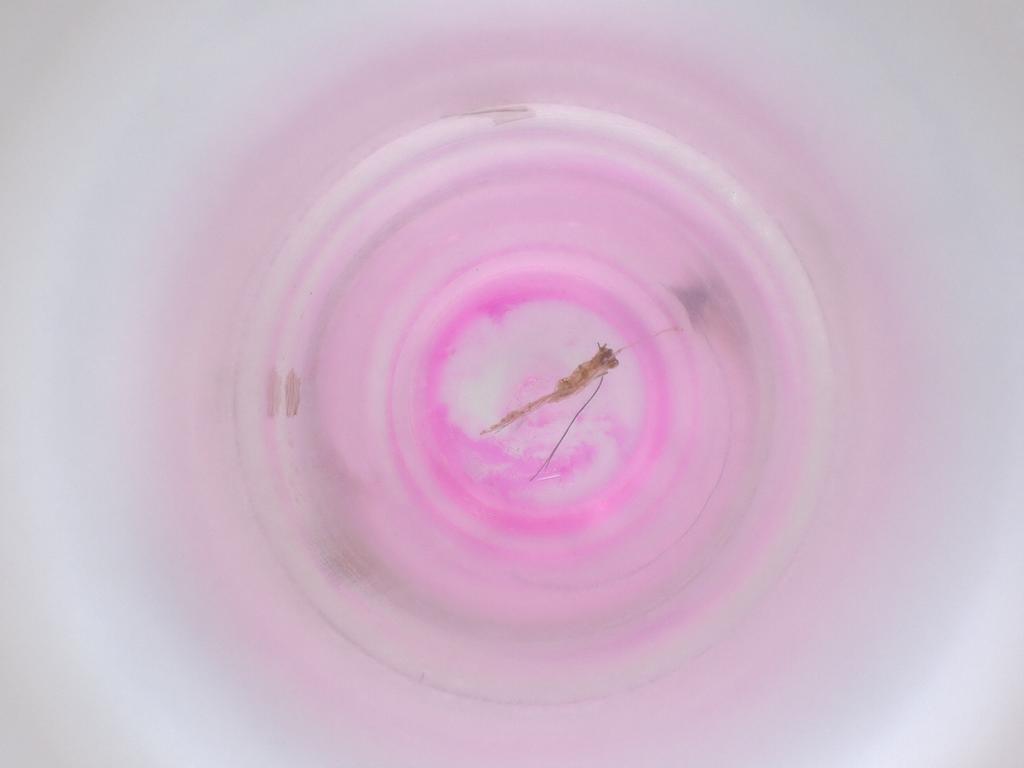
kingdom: Animalia
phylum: Arthropoda
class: Insecta
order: Diptera
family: Cecidomyiidae
